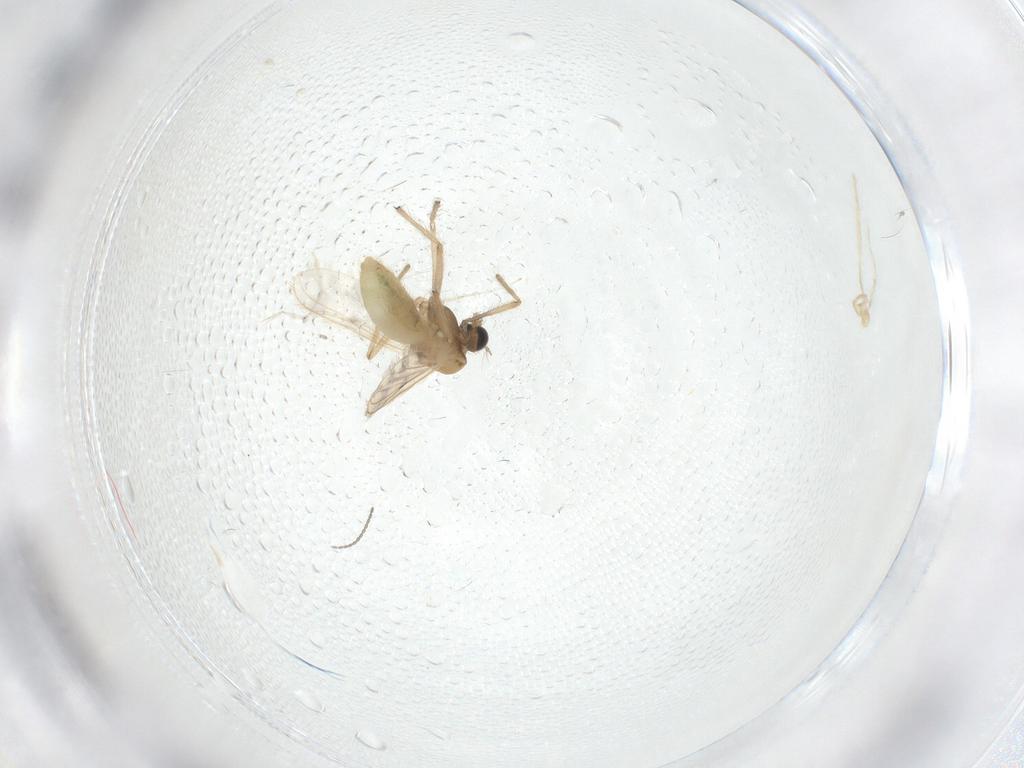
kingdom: Animalia
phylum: Arthropoda
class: Insecta
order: Diptera
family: Chironomidae
